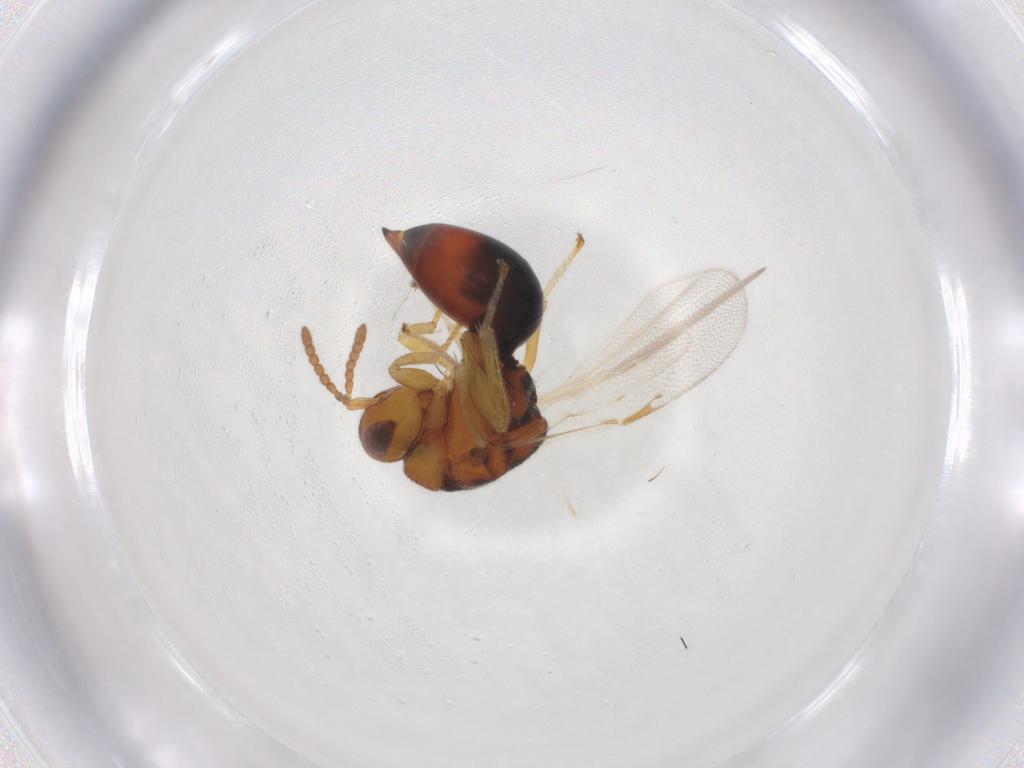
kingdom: Animalia
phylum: Arthropoda
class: Insecta
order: Hymenoptera
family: Eurytomidae
